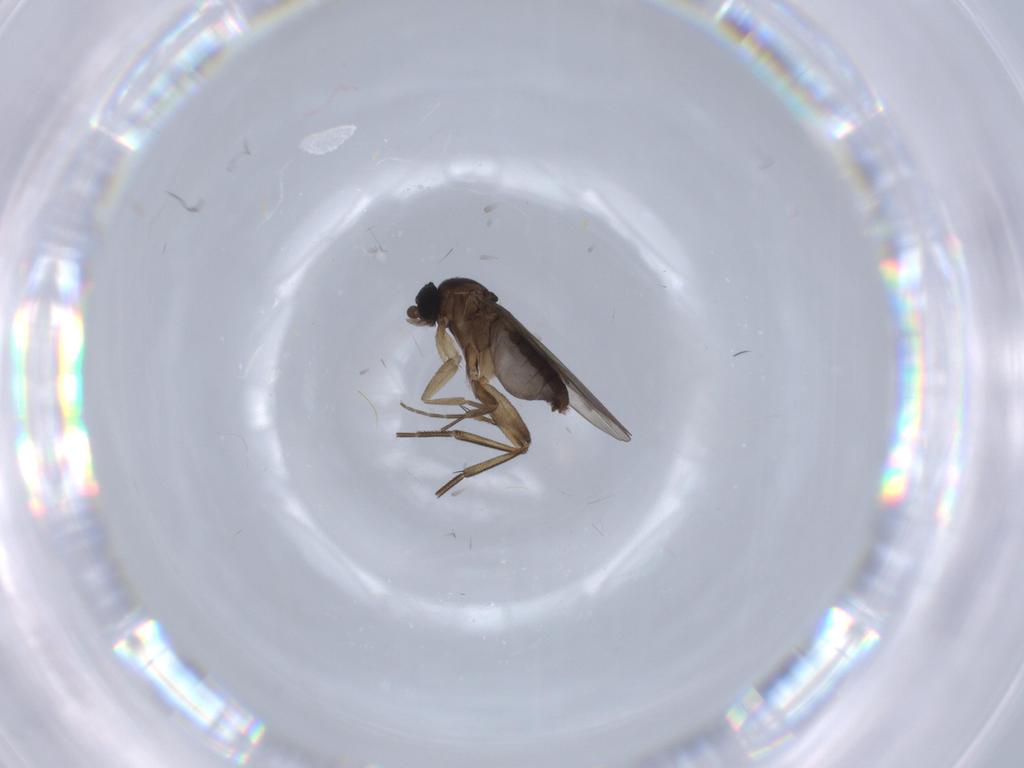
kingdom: Animalia
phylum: Arthropoda
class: Insecta
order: Diptera
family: Phoridae
